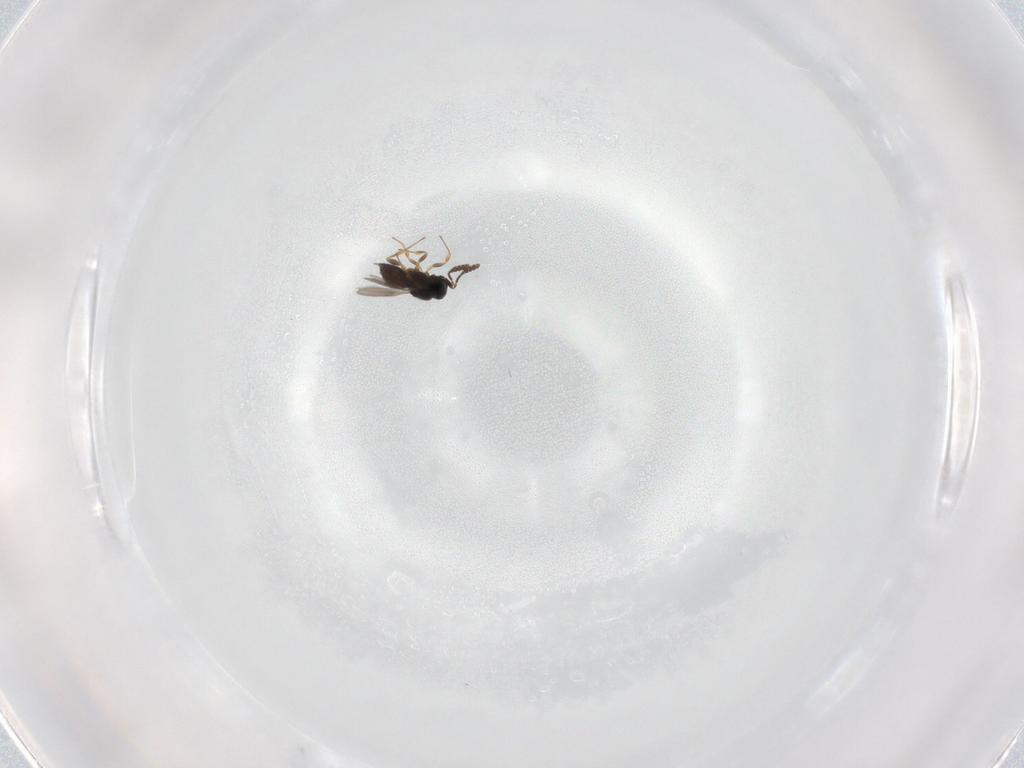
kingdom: Animalia
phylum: Arthropoda
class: Insecta
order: Hymenoptera
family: Scelionidae
